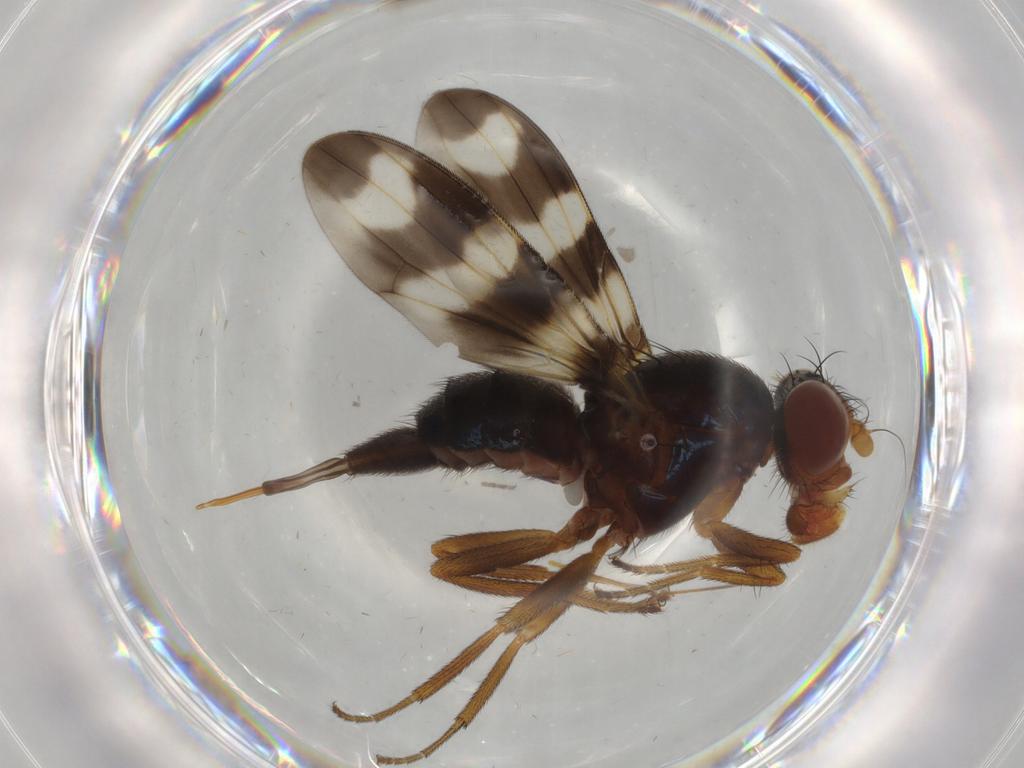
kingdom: Animalia
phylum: Arthropoda
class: Insecta
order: Diptera
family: Ulidiidae
